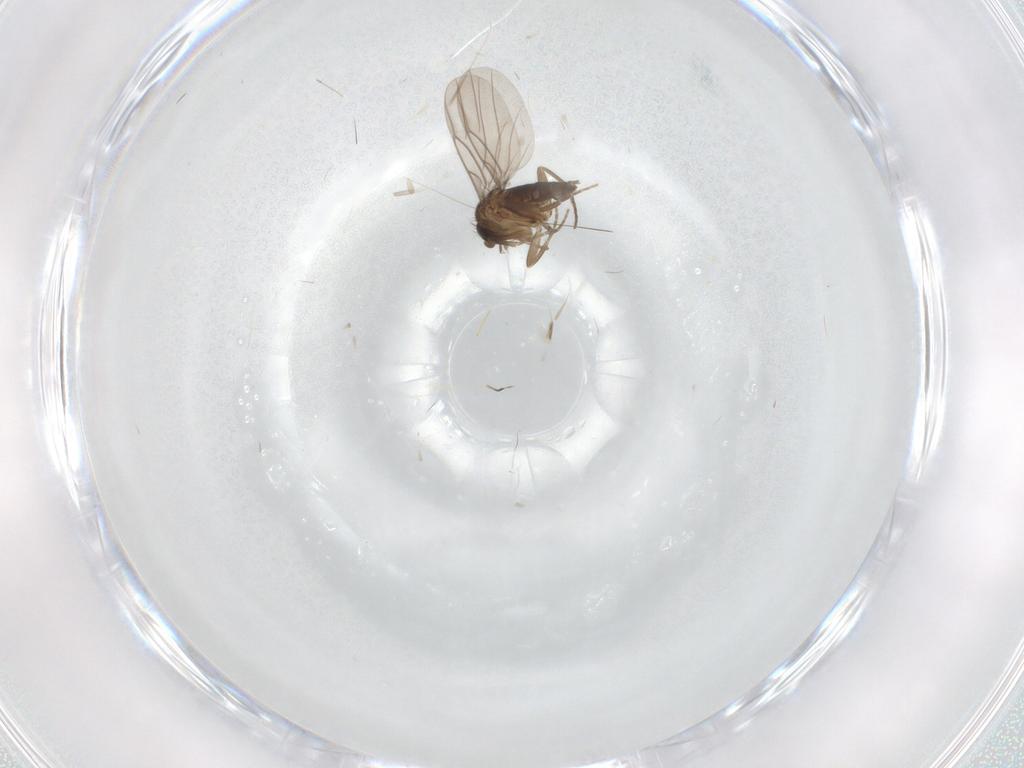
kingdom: Animalia
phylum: Arthropoda
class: Insecta
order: Diptera
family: Phoridae
